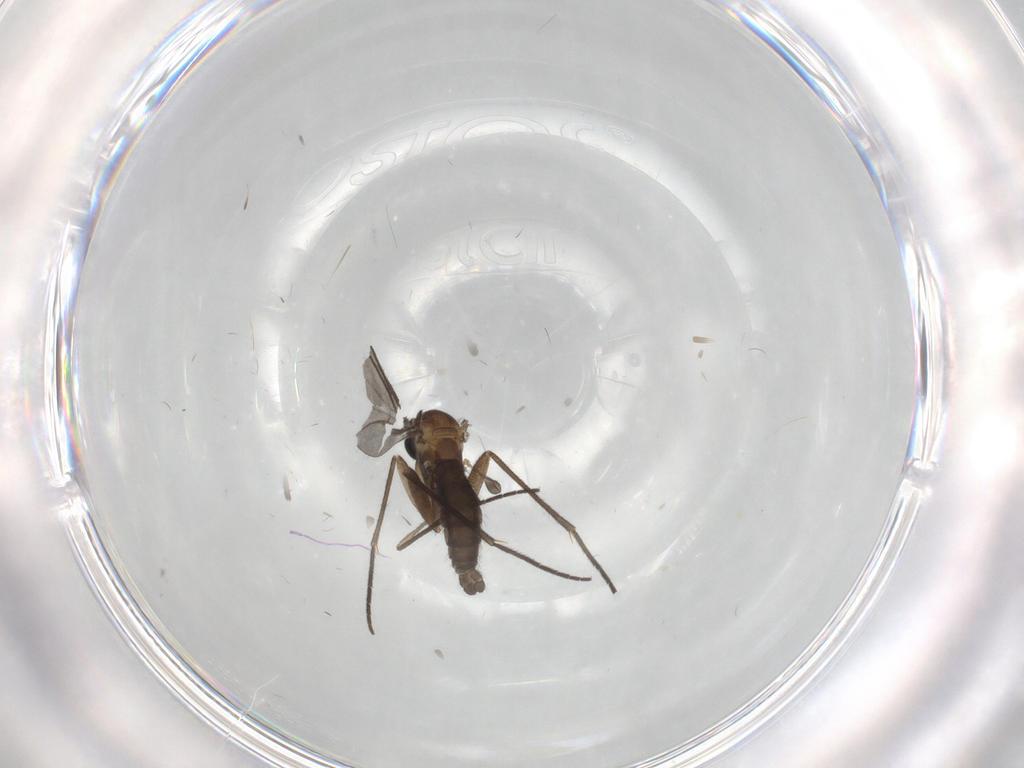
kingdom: Animalia
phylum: Arthropoda
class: Insecta
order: Diptera
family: Sciaridae
